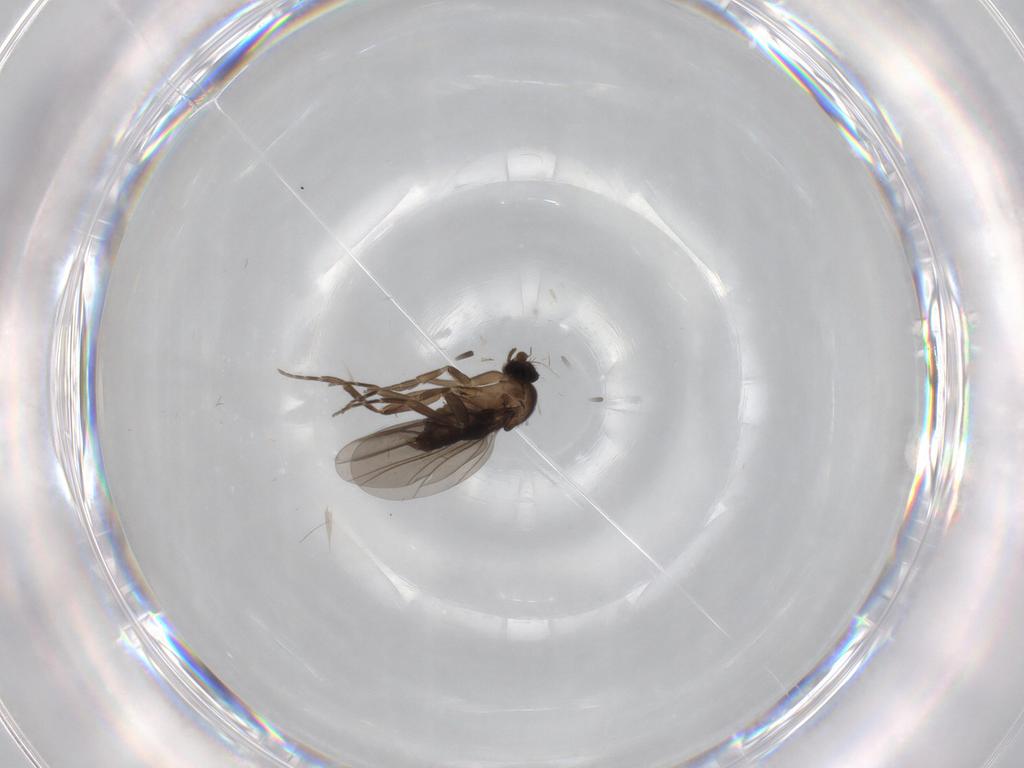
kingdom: Animalia
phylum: Arthropoda
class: Insecta
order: Diptera
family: Phoridae
